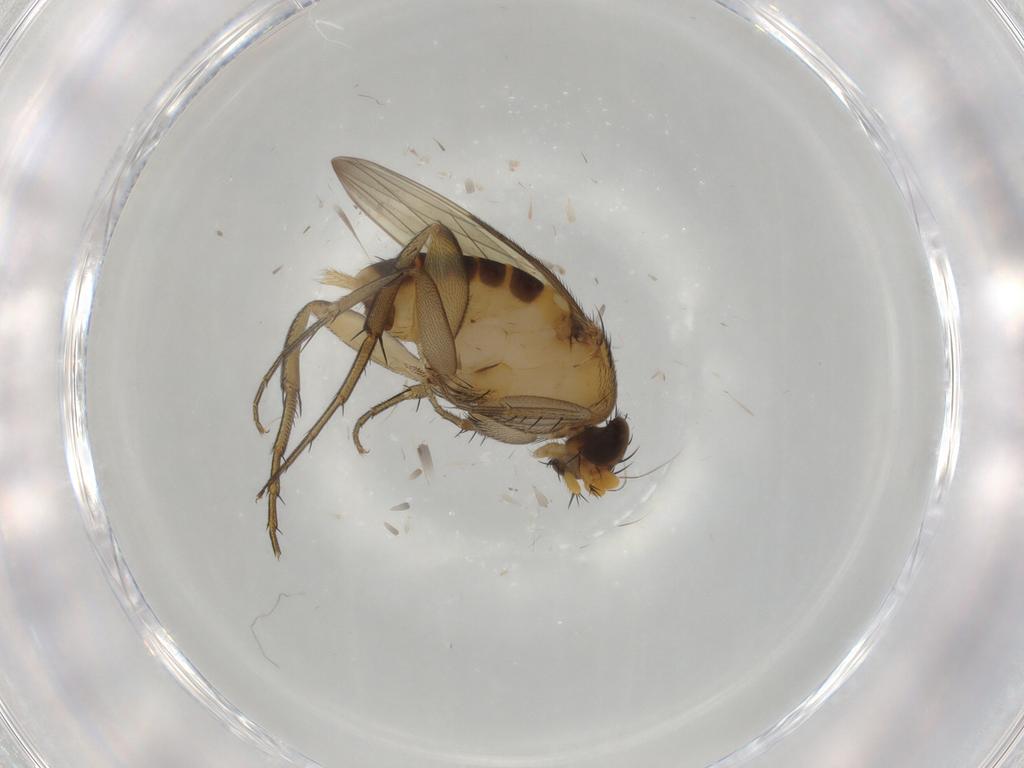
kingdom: Animalia
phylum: Arthropoda
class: Insecta
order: Diptera
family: Phoridae
